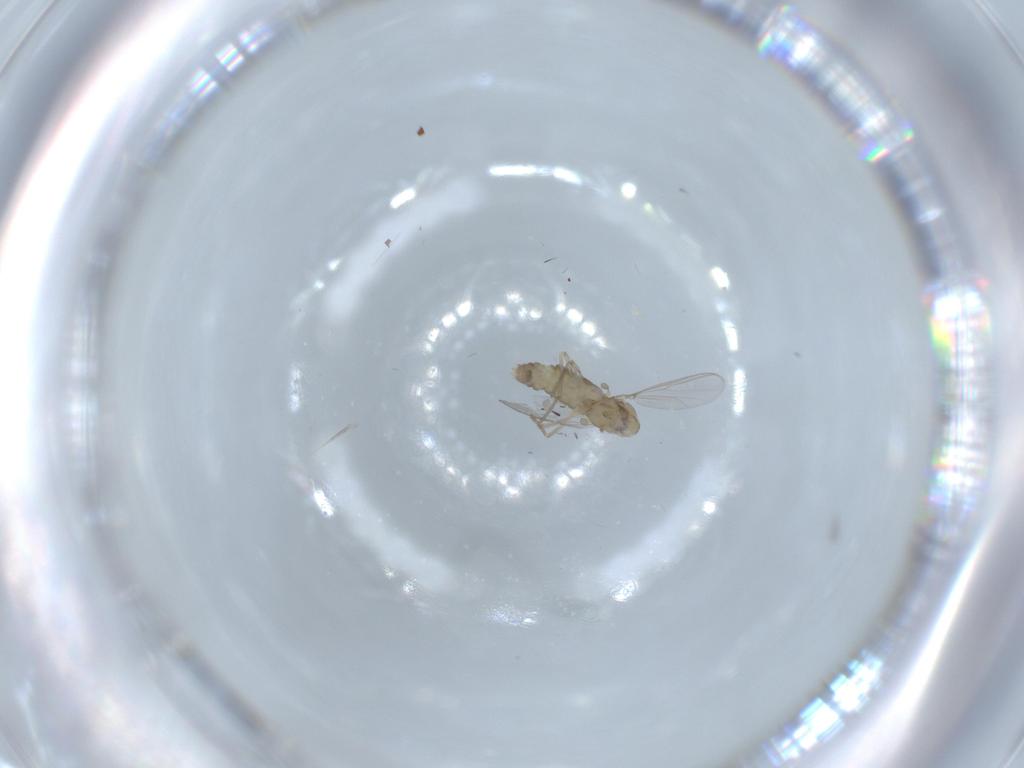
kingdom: Animalia
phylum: Arthropoda
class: Insecta
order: Diptera
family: Chironomidae
